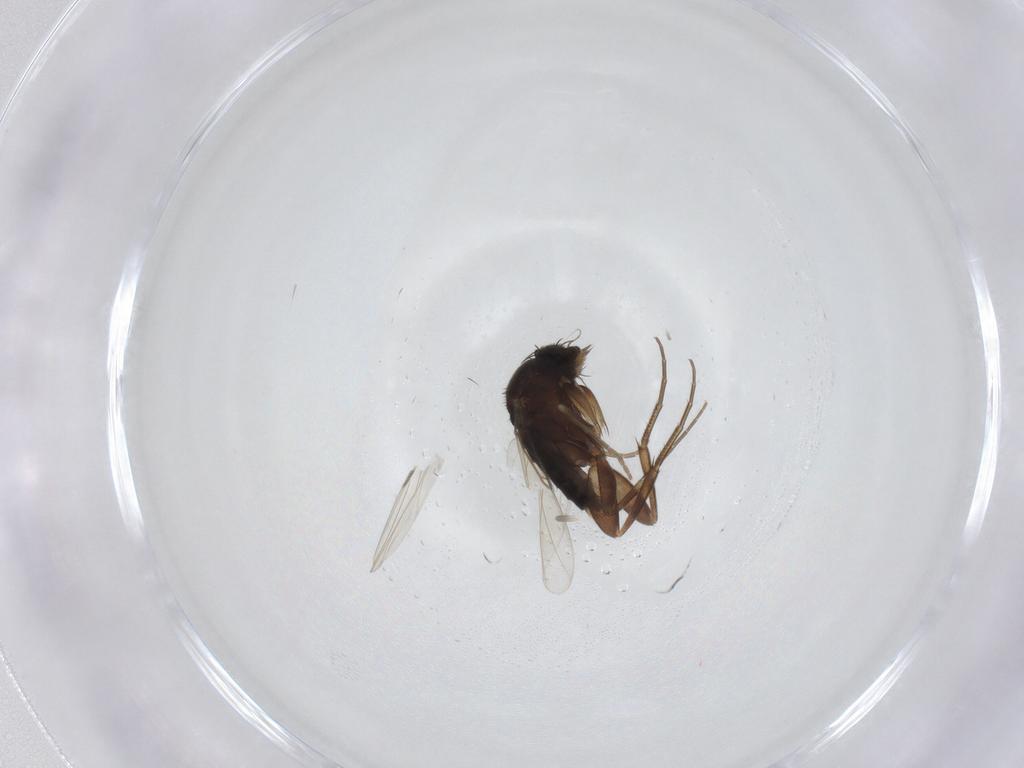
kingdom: Animalia
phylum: Arthropoda
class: Insecta
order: Diptera
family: Phoridae
